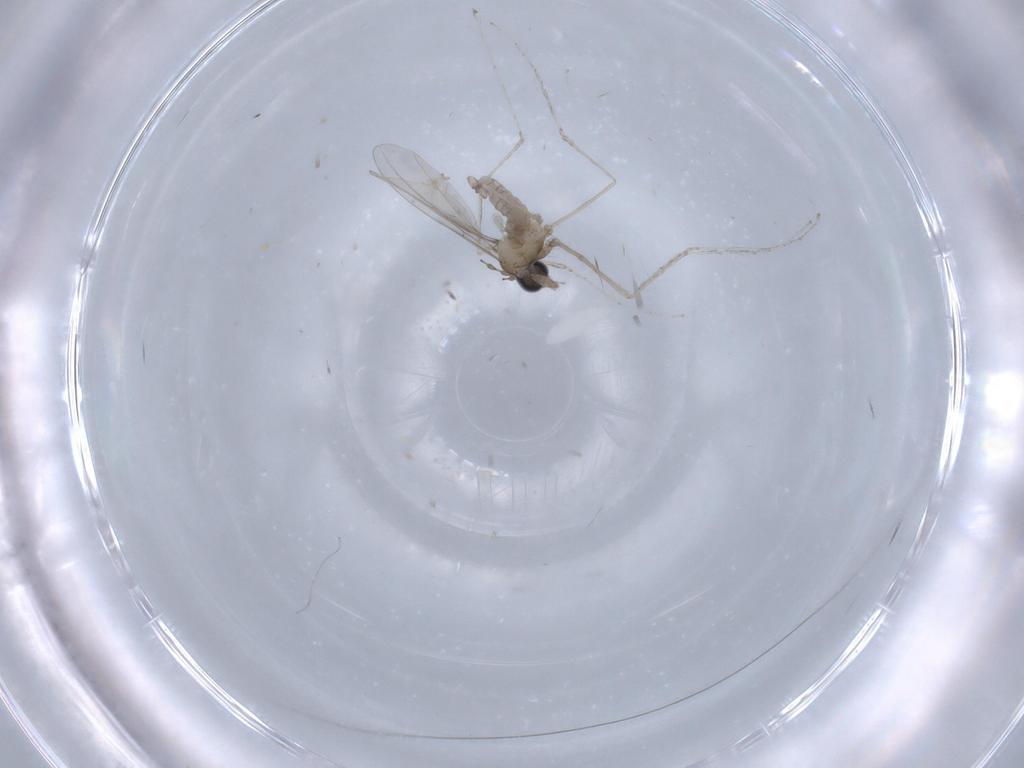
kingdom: Animalia
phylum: Arthropoda
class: Insecta
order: Diptera
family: Cecidomyiidae
